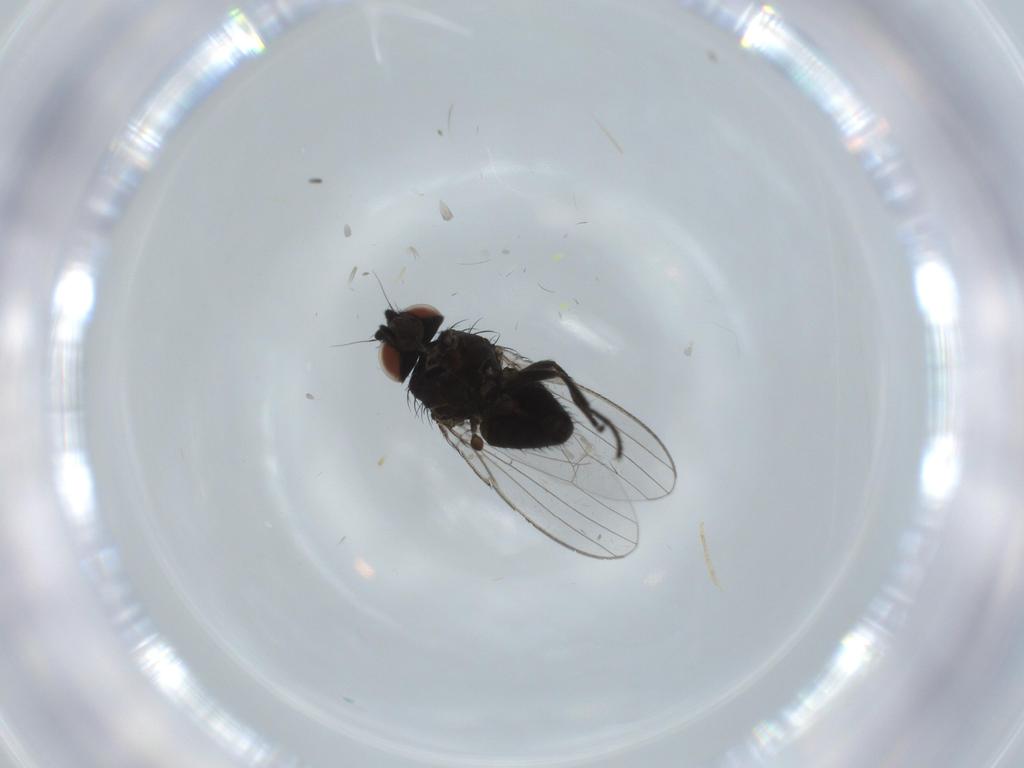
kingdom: Animalia
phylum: Arthropoda
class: Insecta
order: Diptera
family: Milichiidae
